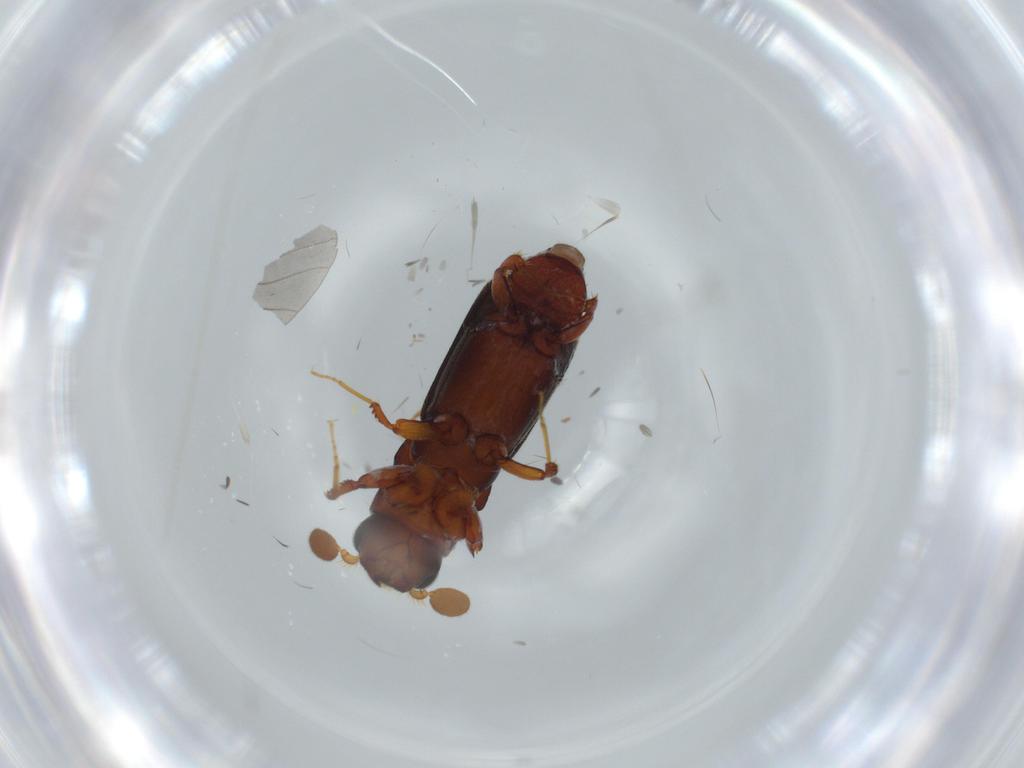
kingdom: Animalia
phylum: Arthropoda
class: Insecta
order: Coleoptera
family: Curculionidae
